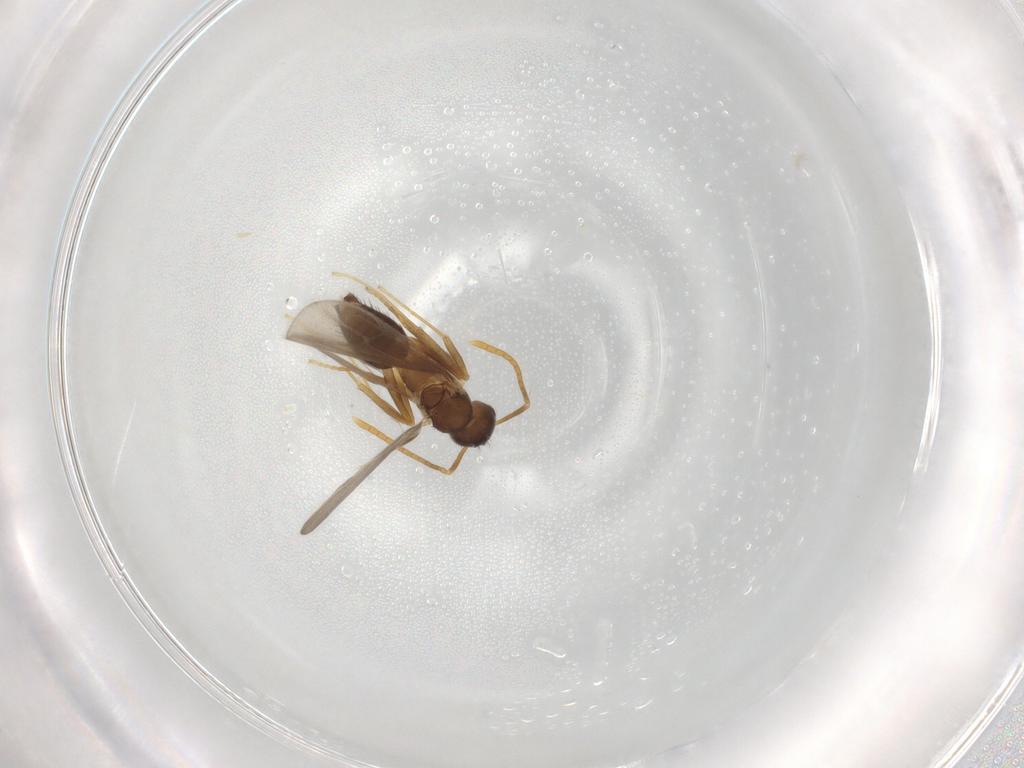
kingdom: Animalia
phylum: Arthropoda
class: Insecta
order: Hymenoptera
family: Formicidae
